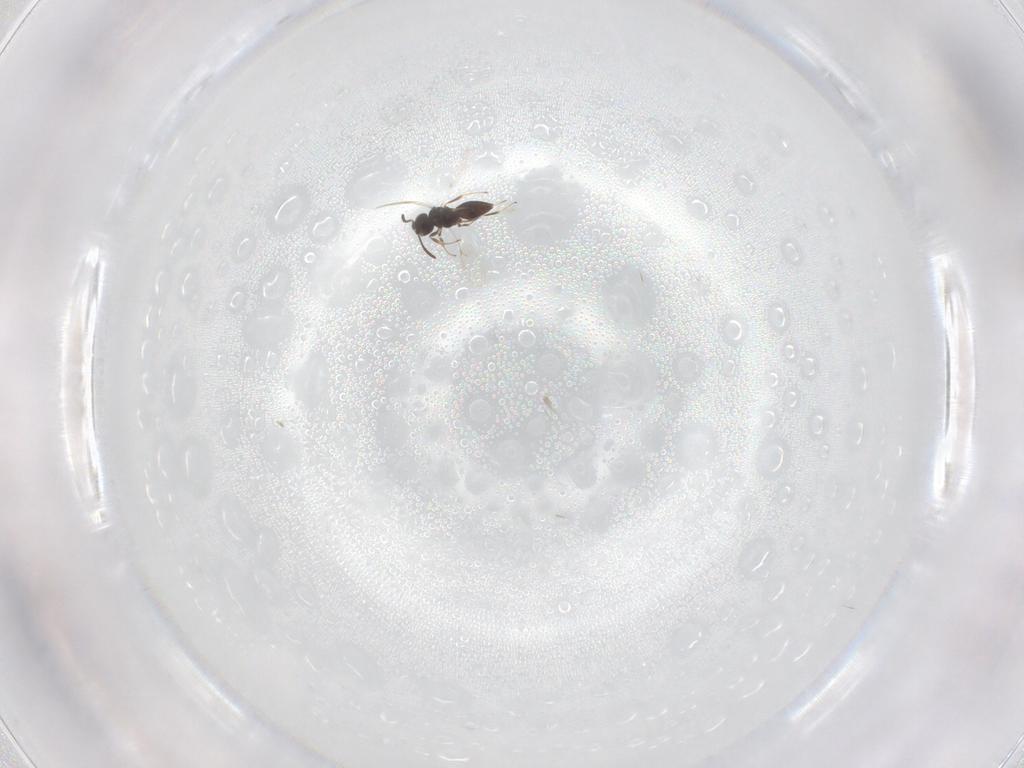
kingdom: Animalia
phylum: Arthropoda
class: Insecta
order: Hymenoptera
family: Scelionidae
